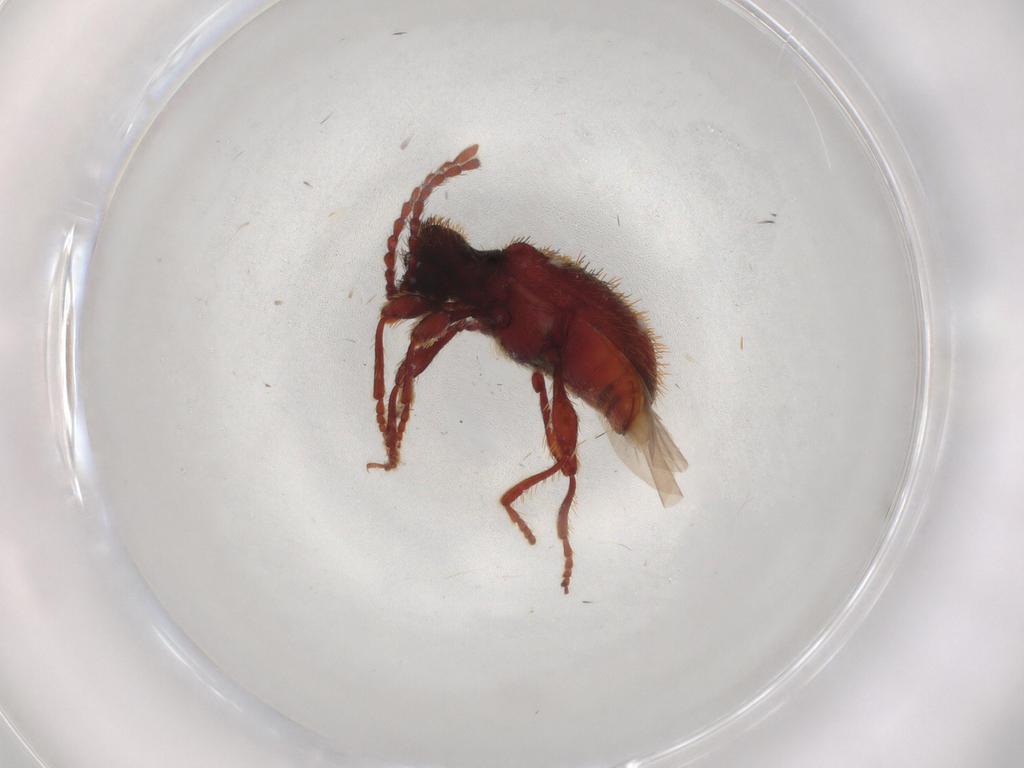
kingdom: Animalia
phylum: Arthropoda
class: Insecta
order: Coleoptera
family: Ptinidae
